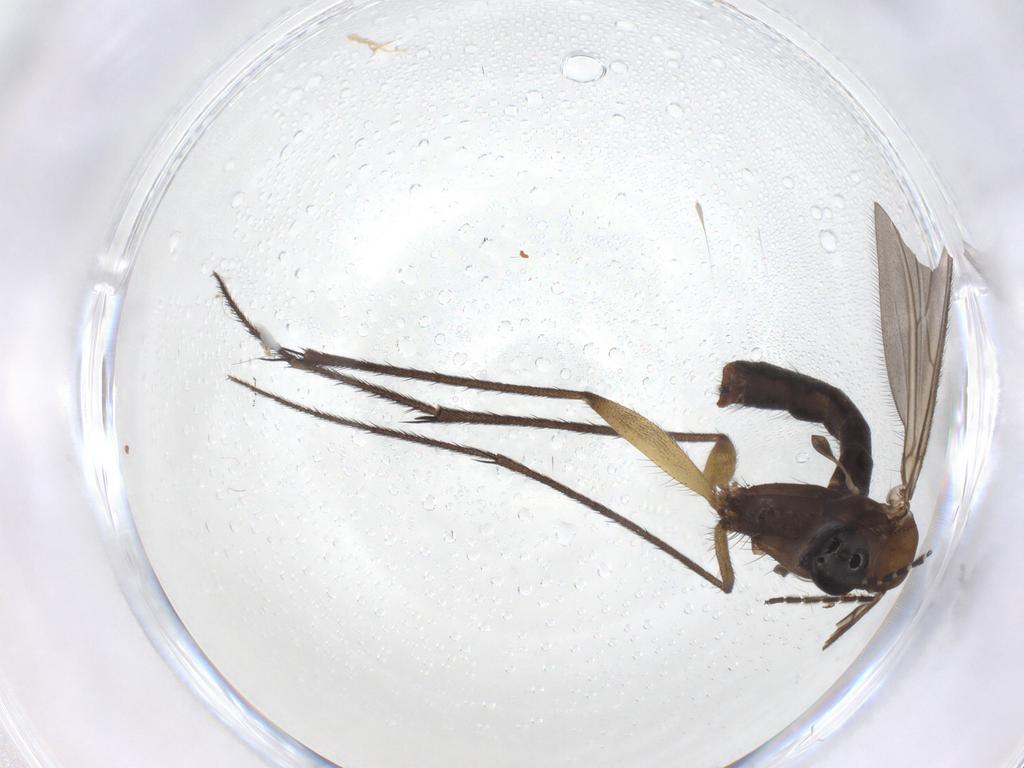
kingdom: Animalia
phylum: Arthropoda
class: Insecta
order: Diptera
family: Ditomyiidae
